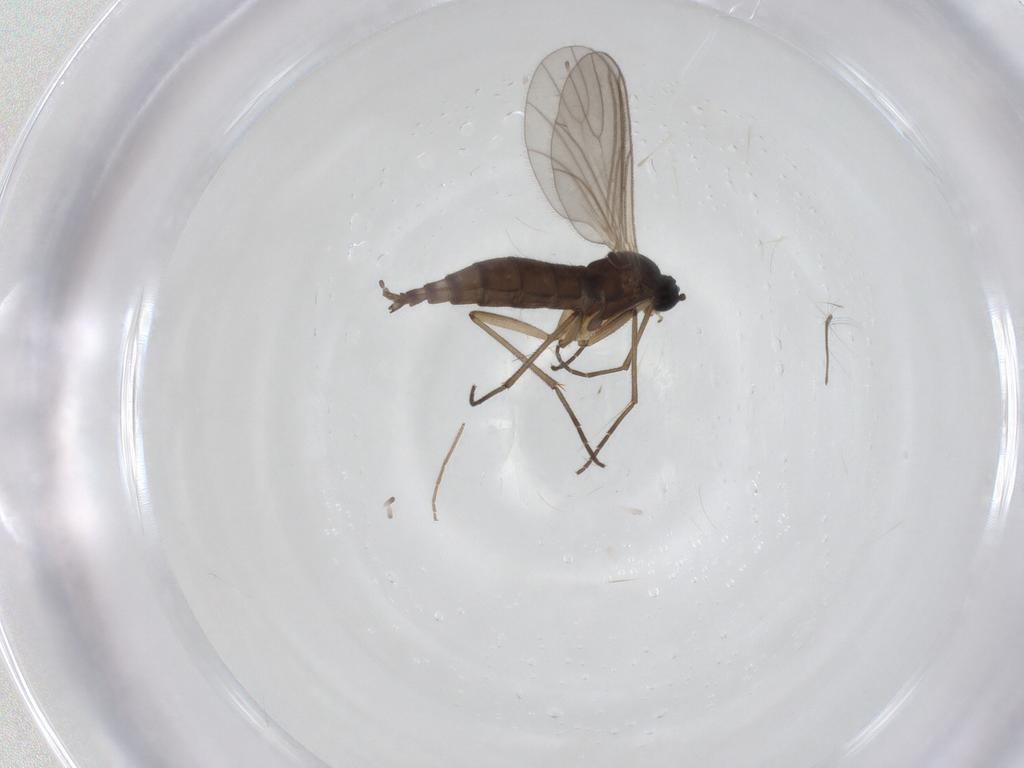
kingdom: Animalia
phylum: Arthropoda
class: Insecta
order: Diptera
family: Sciaridae
